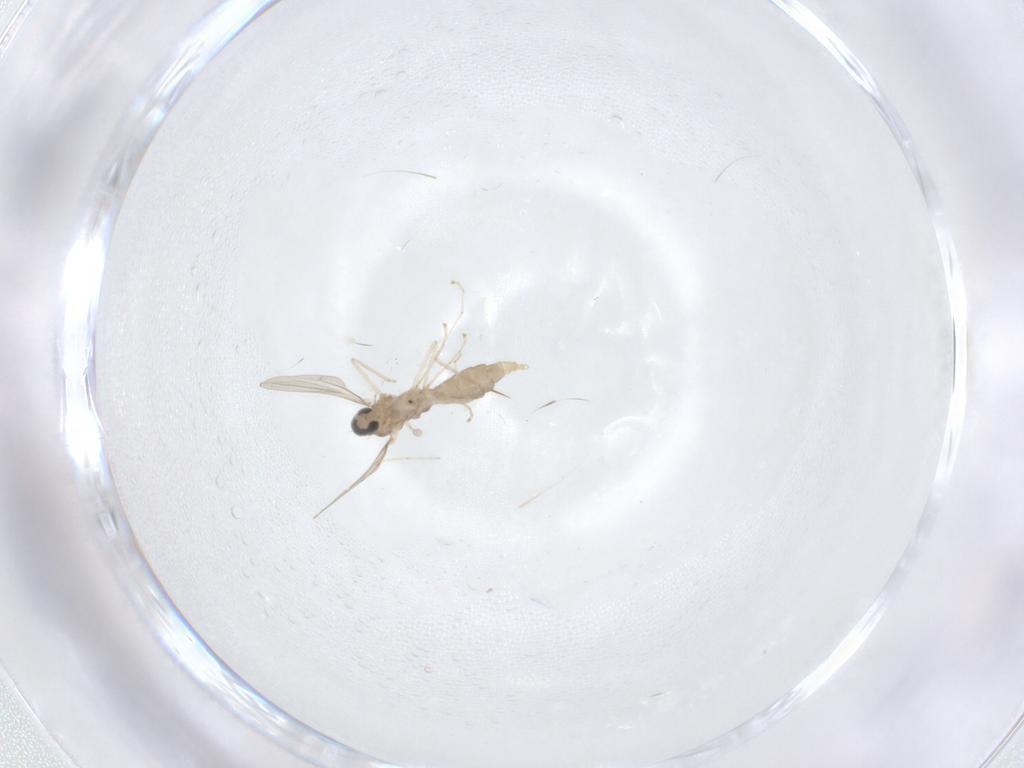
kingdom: Animalia
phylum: Arthropoda
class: Insecta
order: Diptera
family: Cecidomyiidae
